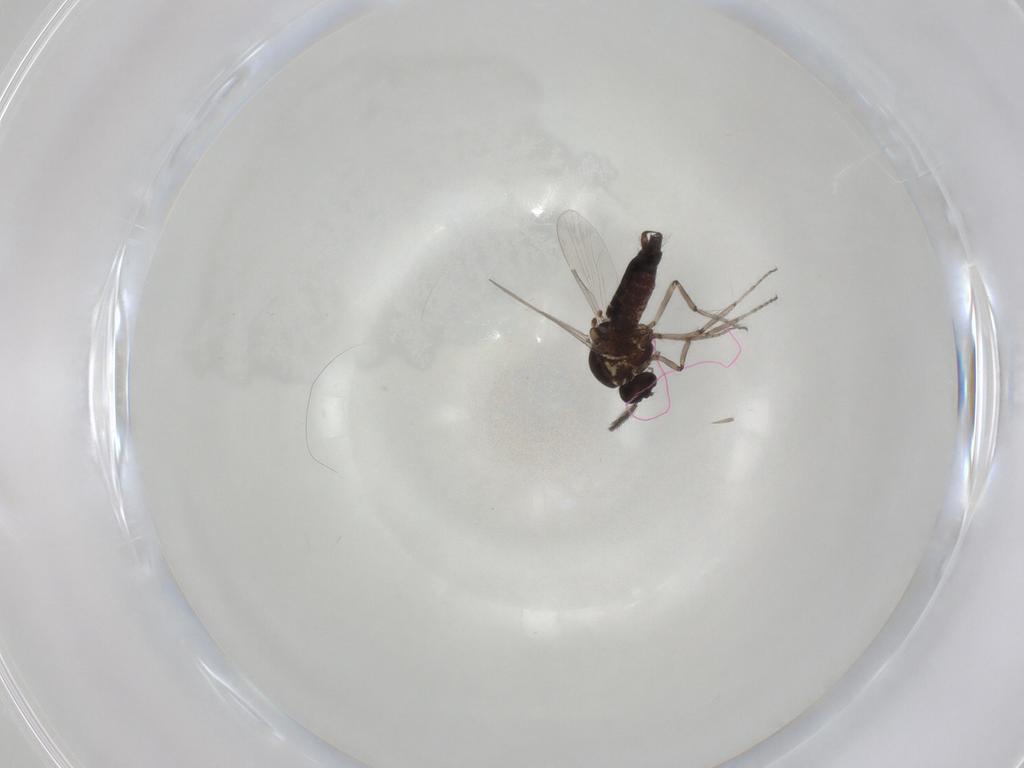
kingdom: Animalia
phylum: Arthropoda
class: Insecta
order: Diptera
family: Ceratopogonidae
